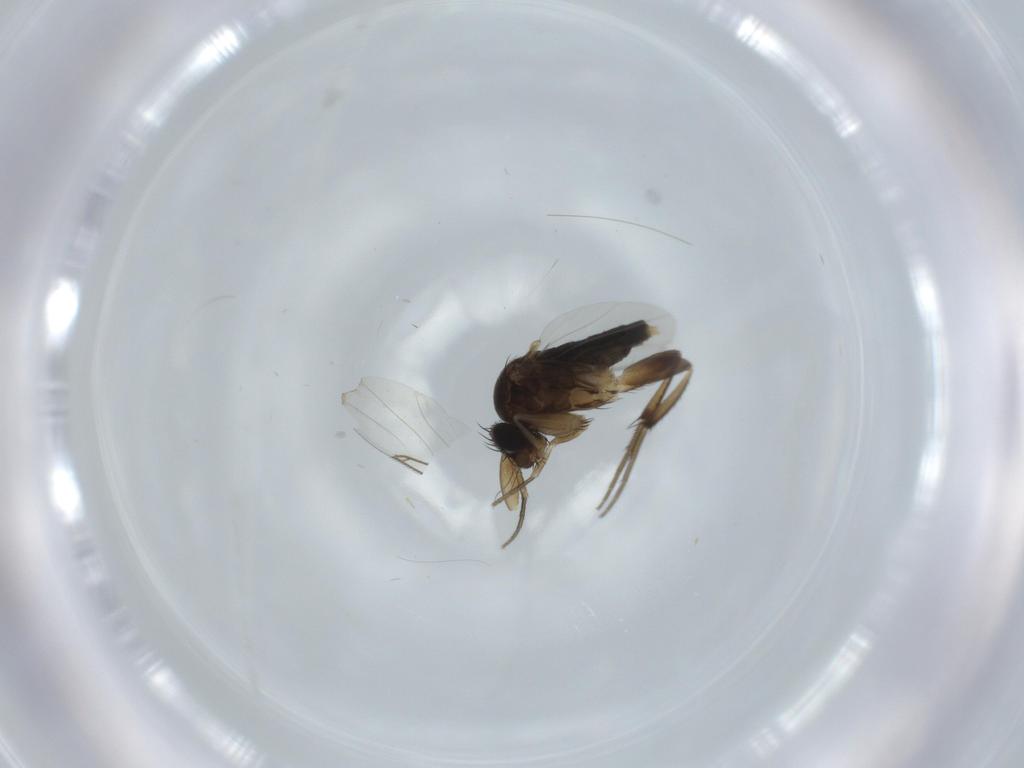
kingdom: Animalia
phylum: Arthropoda
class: Insecta
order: Diptera
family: Phoridae
